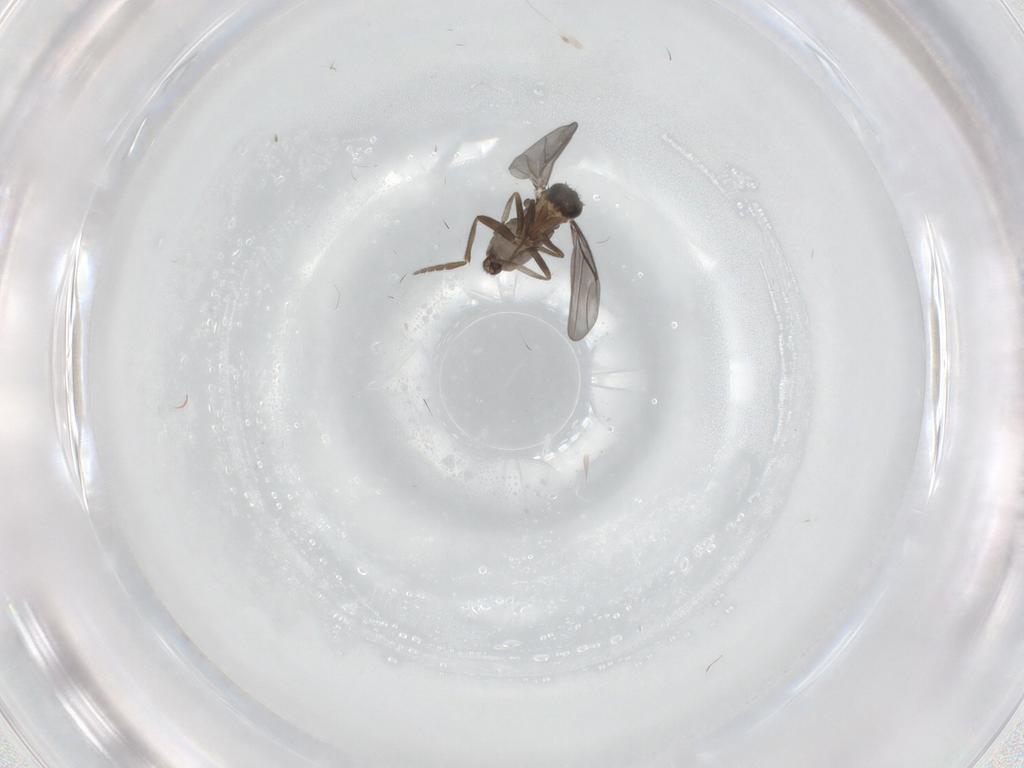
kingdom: Animalia
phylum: Arthropoda
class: Insecta
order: Diptera
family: Phoridae
